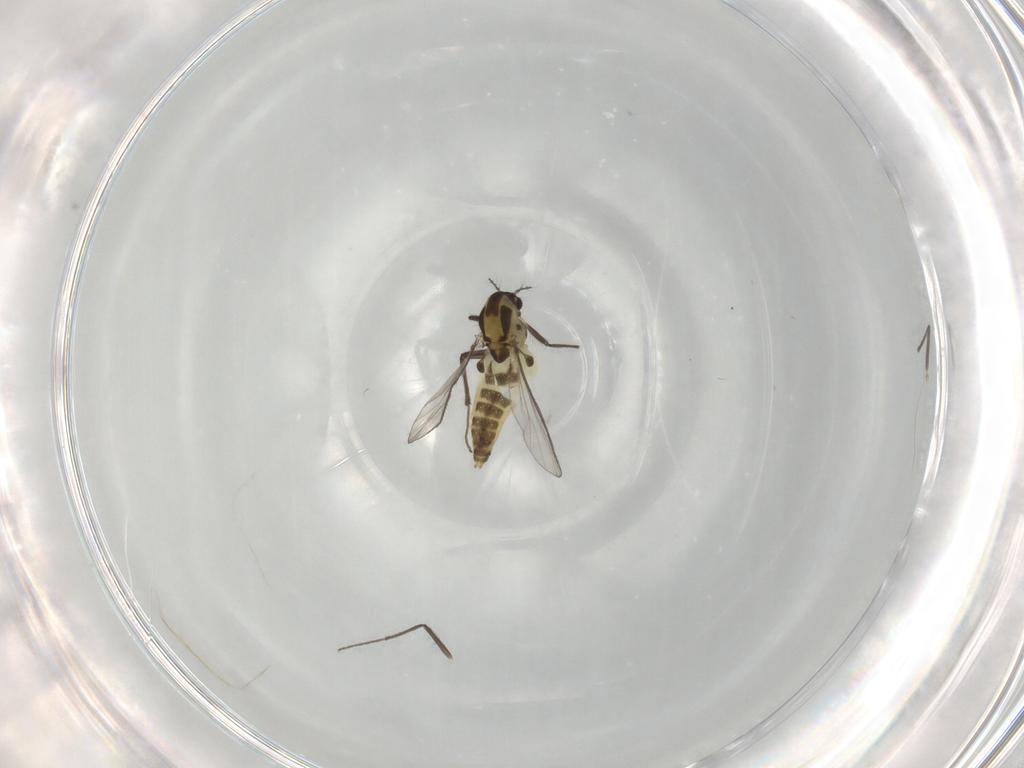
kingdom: Animalia
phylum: Arthropoda
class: Insecta
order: Diptera
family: Chironomidae
